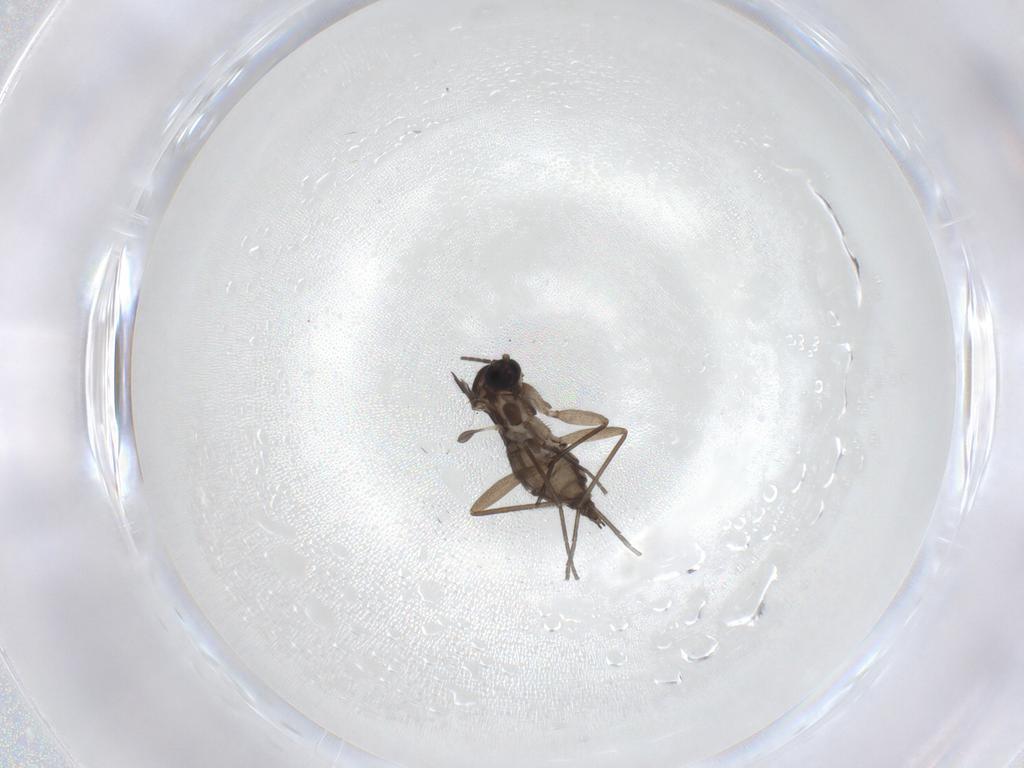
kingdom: Animalia
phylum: Arthropoda
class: Insecta
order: Diptera
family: Sciaridae
